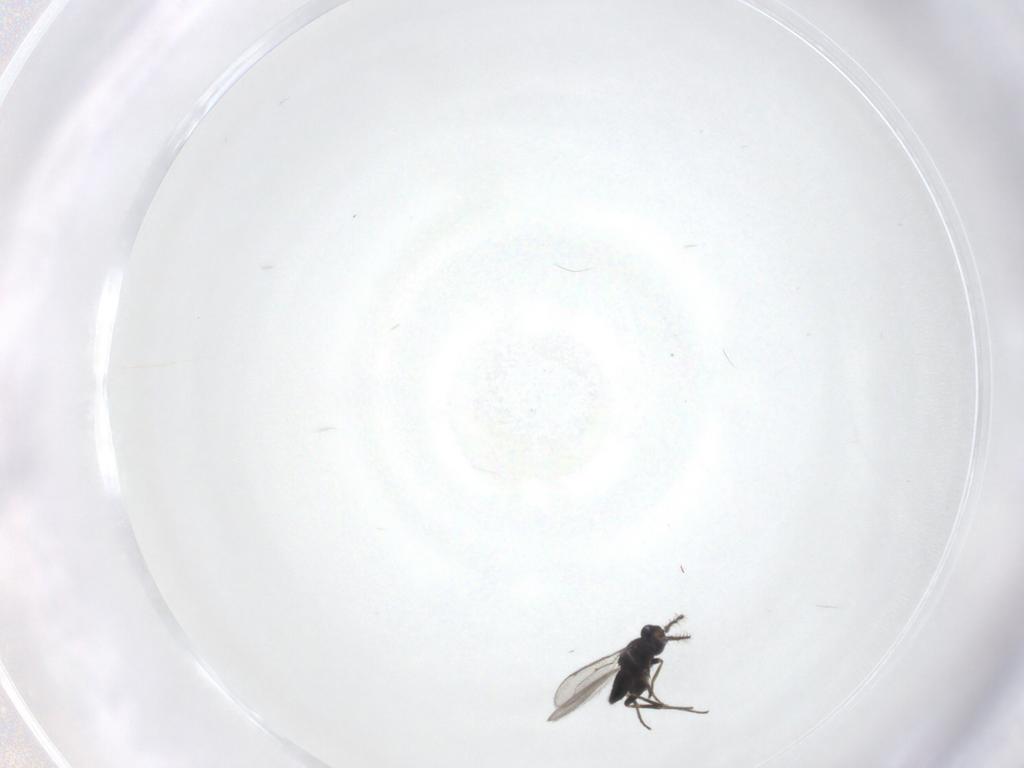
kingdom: Animalia
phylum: Arthropoda
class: Insecta
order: Hymenoptera
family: Eulophidae
